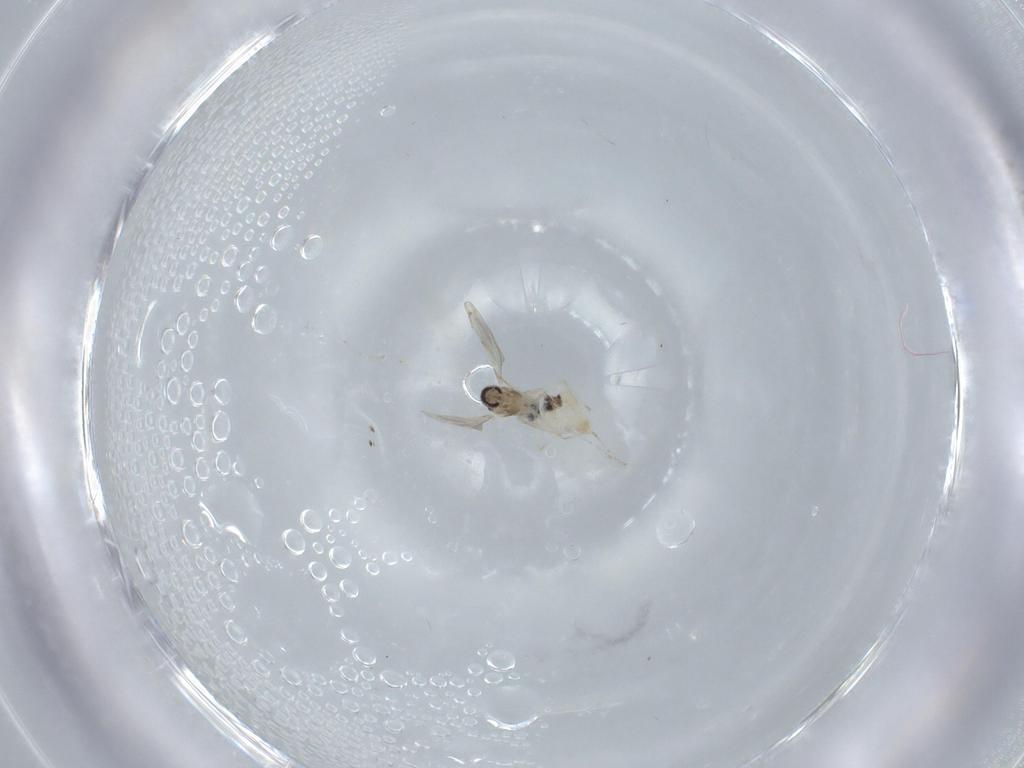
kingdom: Animalia
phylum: Arthropoda
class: Insecta
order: Diptera
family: Cecidomyiidae
